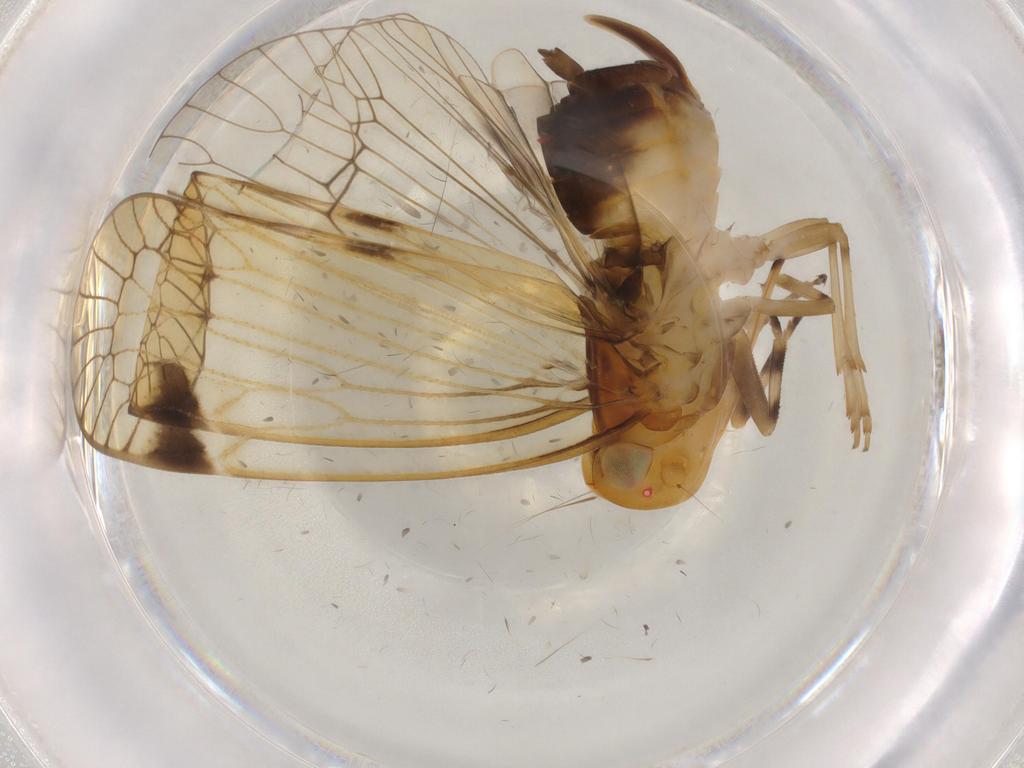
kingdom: Animalia
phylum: Arthropoda
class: Insecta
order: Hemiptera
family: Cixiidae
